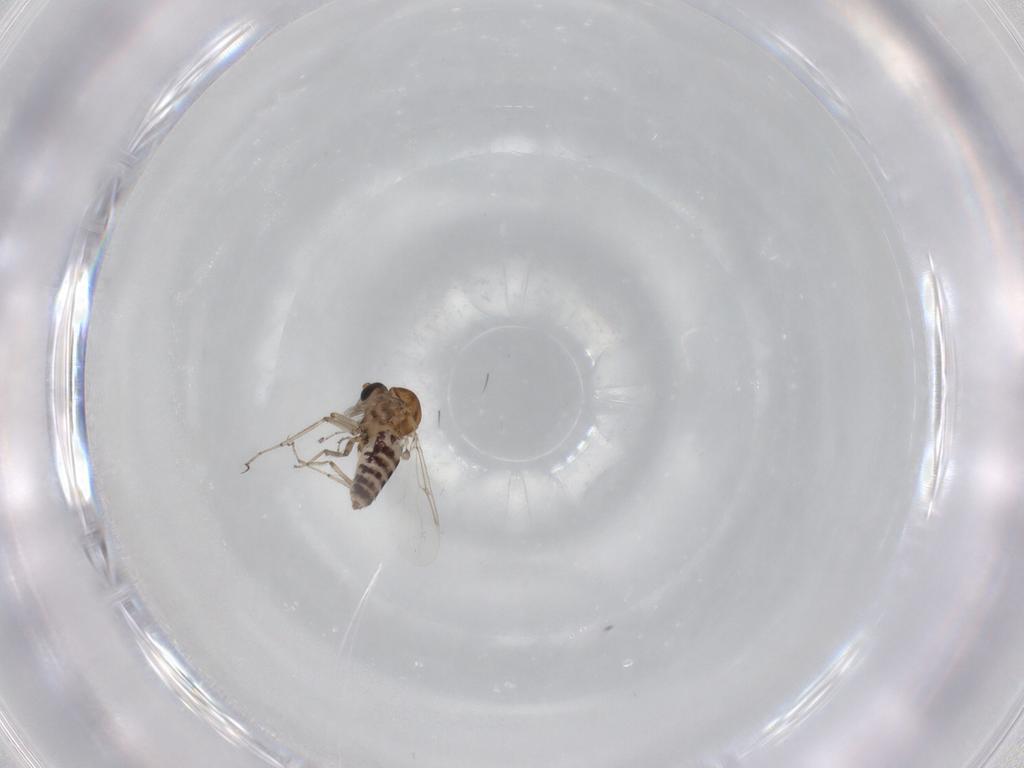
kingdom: Animalia
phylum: Arthropoda
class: Insecta
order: Diptera
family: Ceratopogonidae
